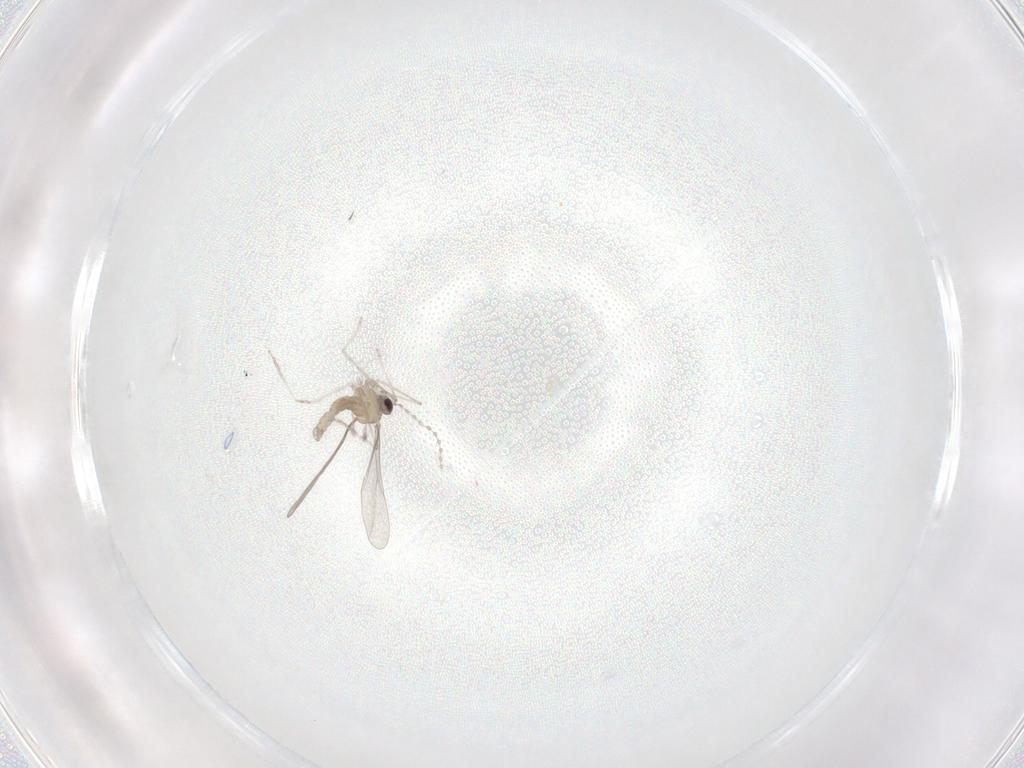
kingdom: Animalia
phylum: Arthropoda
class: Insecta
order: Diptera
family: Cecidomyiidae
